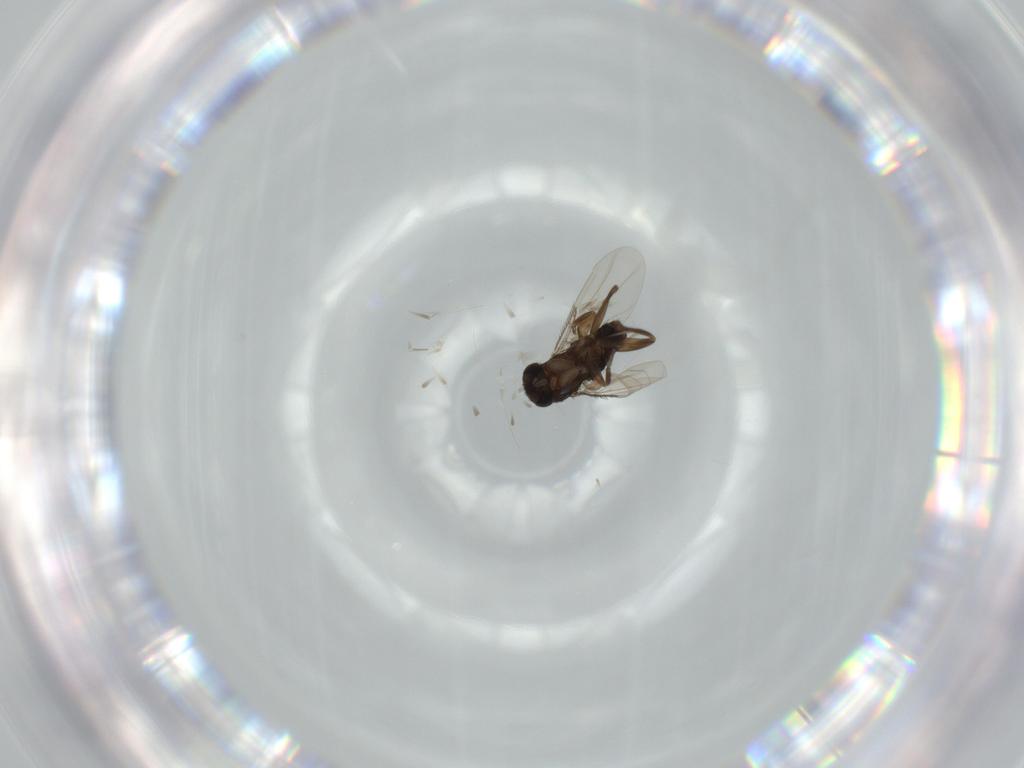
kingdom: Animalia
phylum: Arthropoda
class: Insecta
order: Diptera
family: Phoridae
